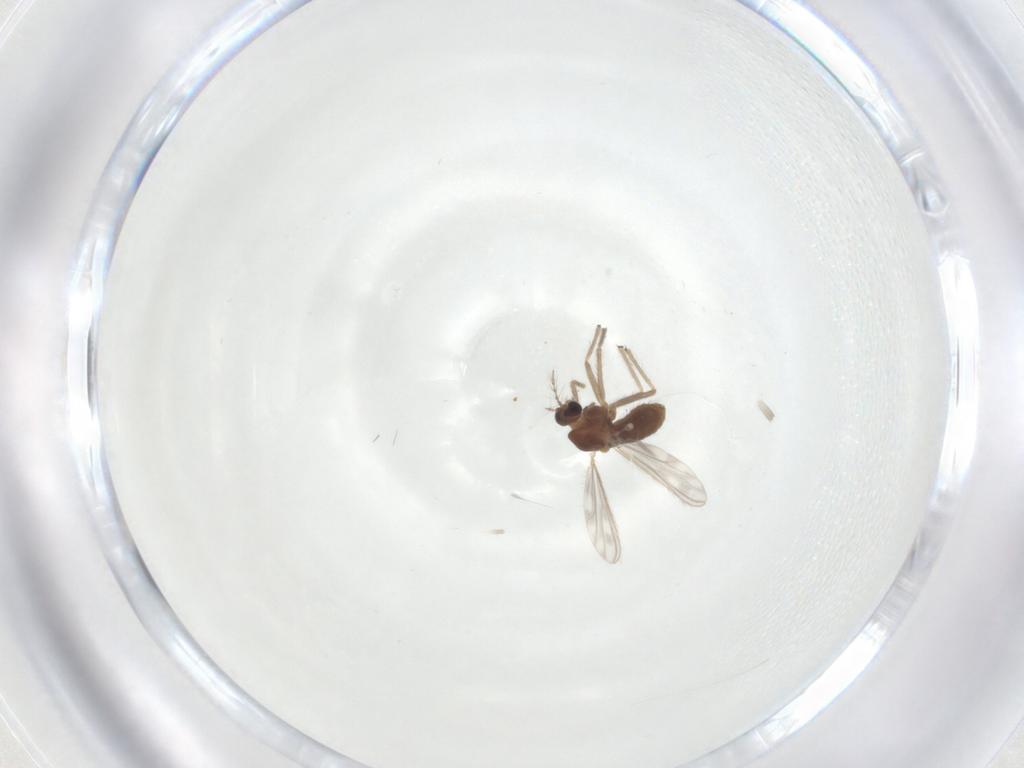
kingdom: Animalia
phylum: Arthropoda
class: Insecta
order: Diptera
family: Chironomidae
